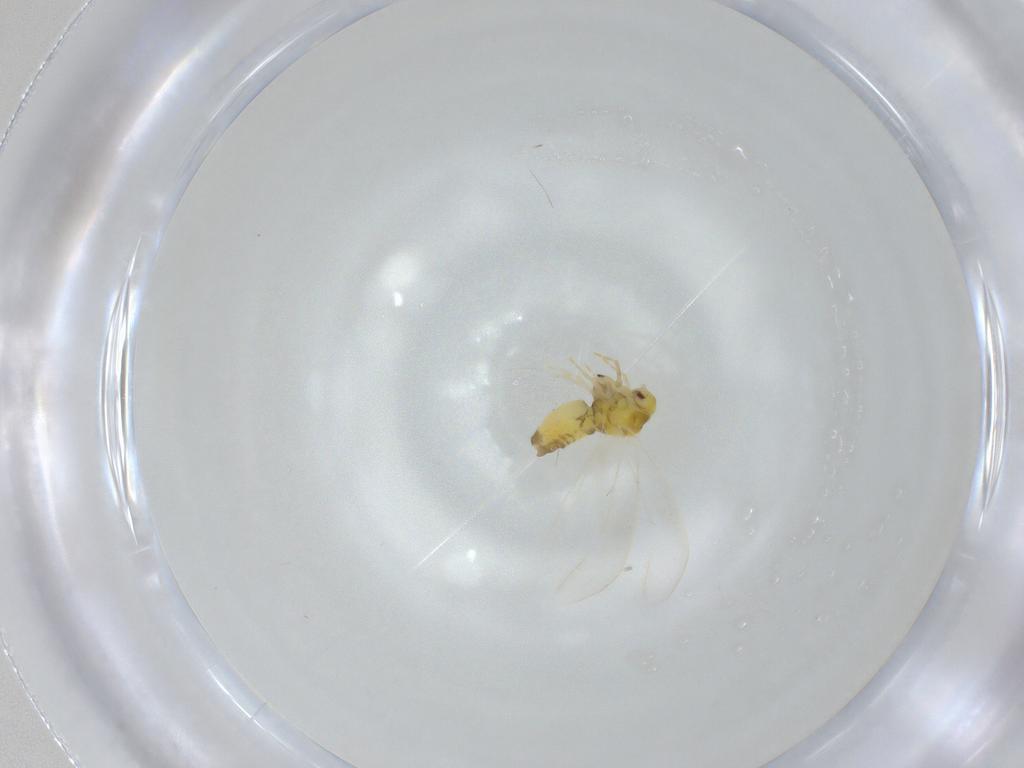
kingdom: Animalia
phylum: Arthropoda
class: Insecta
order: Hemiptera
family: Aleyrodidae
